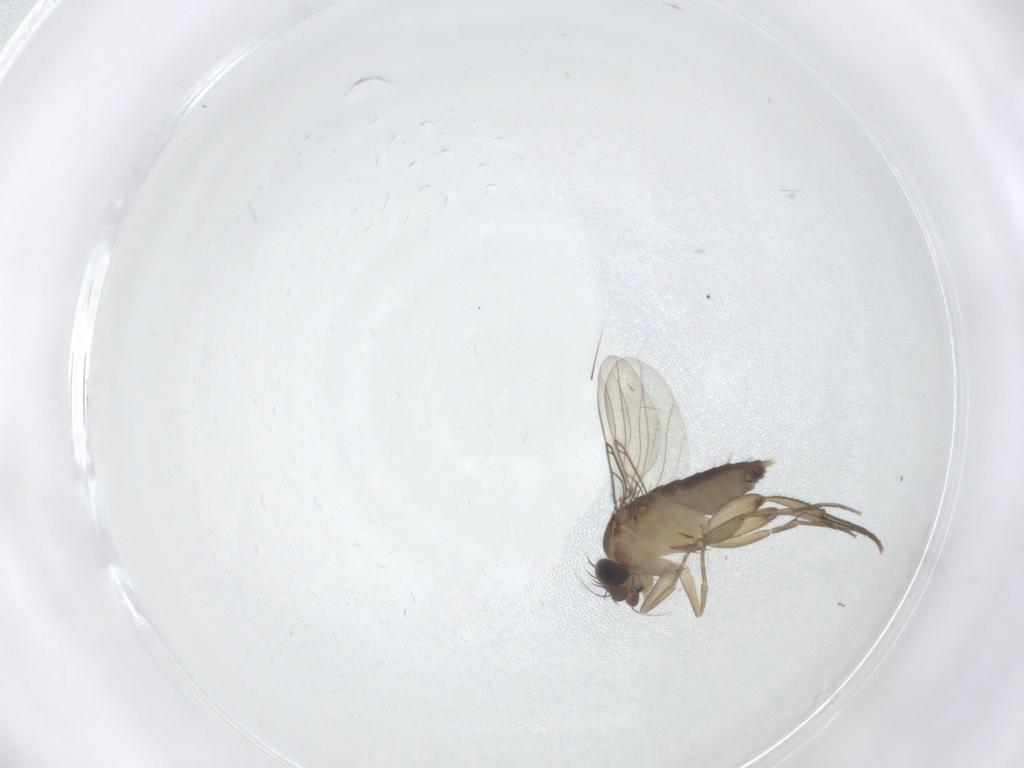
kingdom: Animalia
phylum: Arthropoda
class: Insecta
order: Diptera
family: Phoridae
